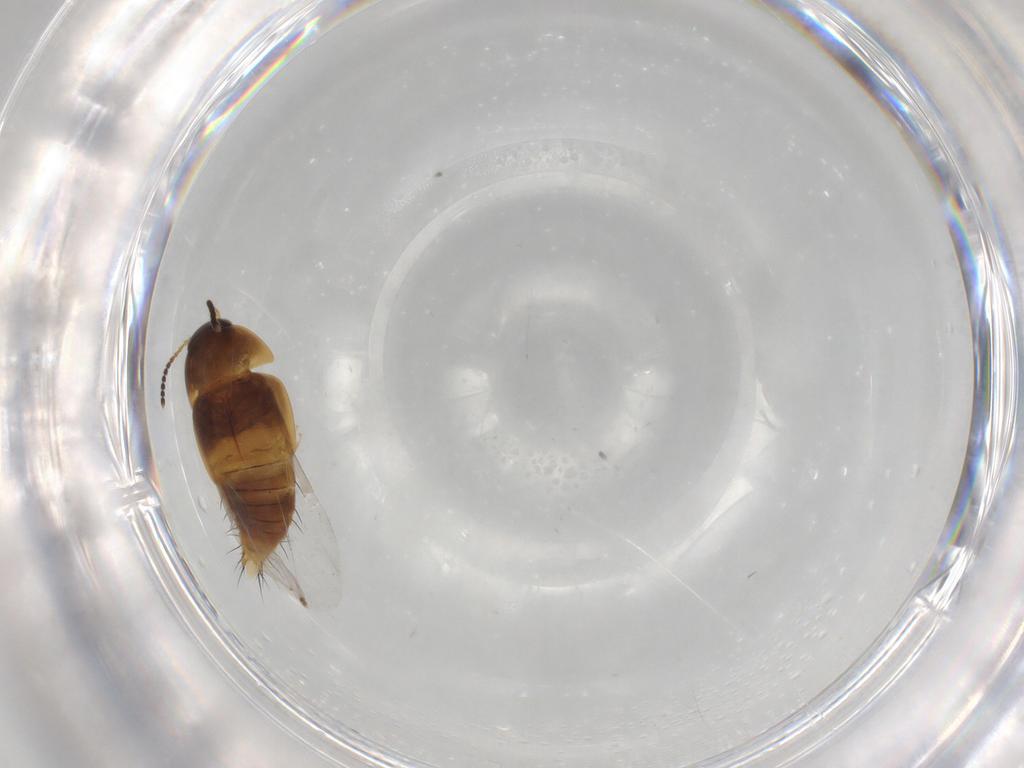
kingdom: Animalia
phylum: Arthropoda
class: Insecta
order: Coleoptera
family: Staphylinidae
